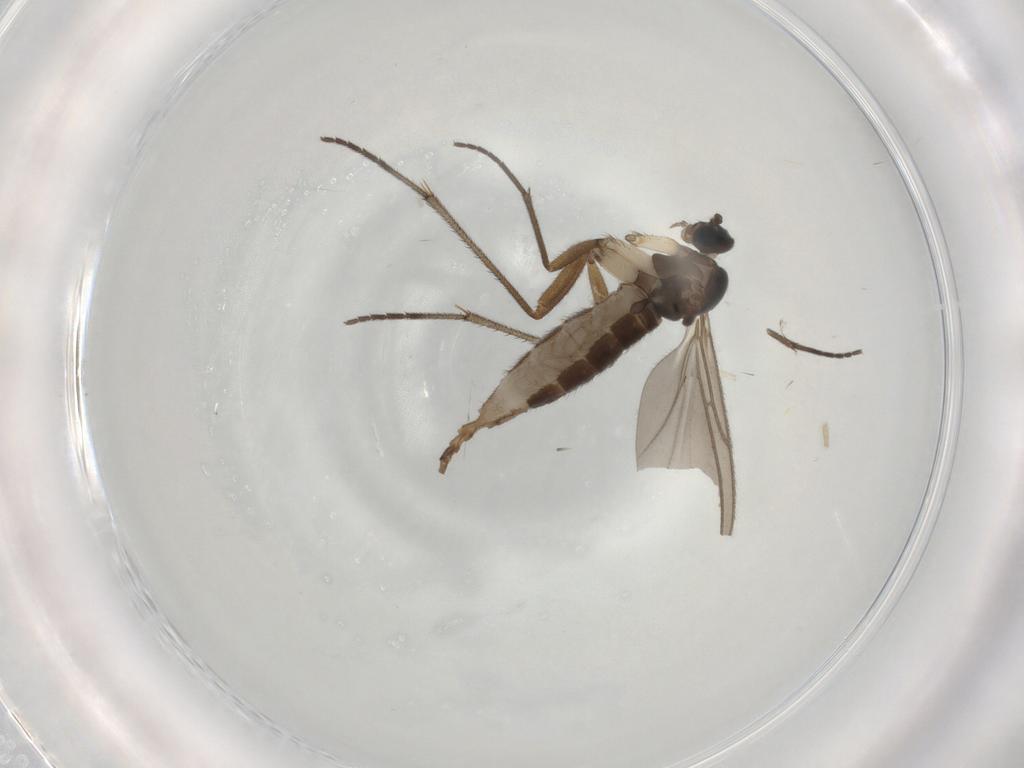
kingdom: Animalia
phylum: Arthropoda
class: Insecta
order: Diptera
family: Sciaridae
